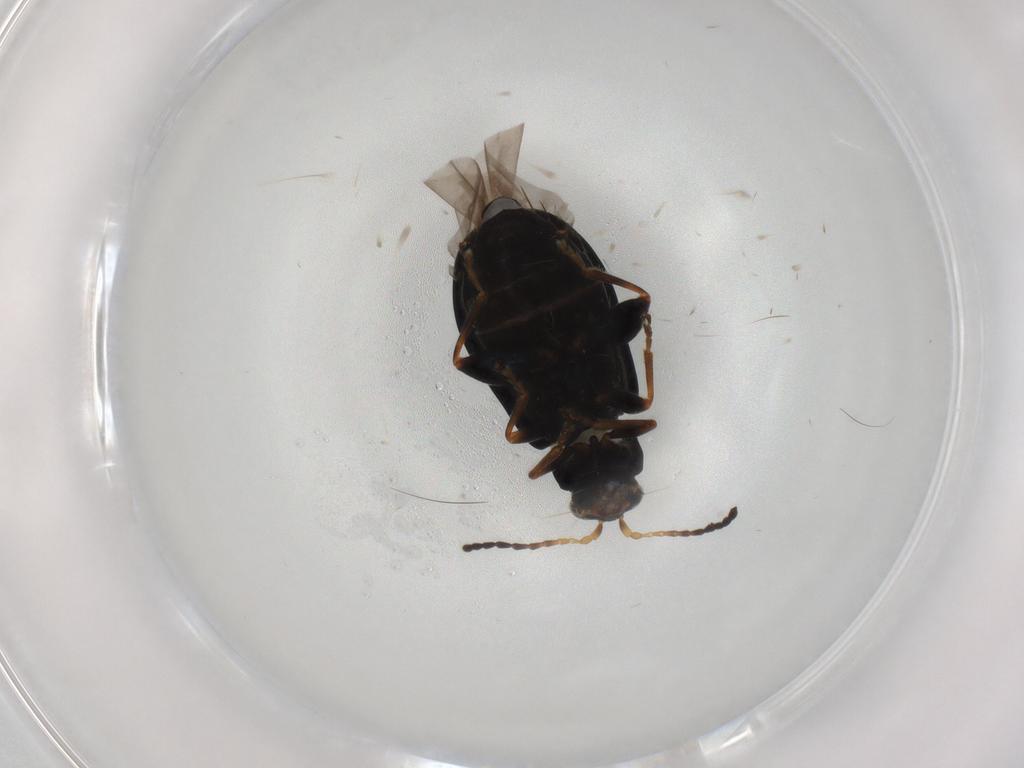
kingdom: Animalia
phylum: Arthropoda
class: Insecta
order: Coleoptera
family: Chrysomelidae
